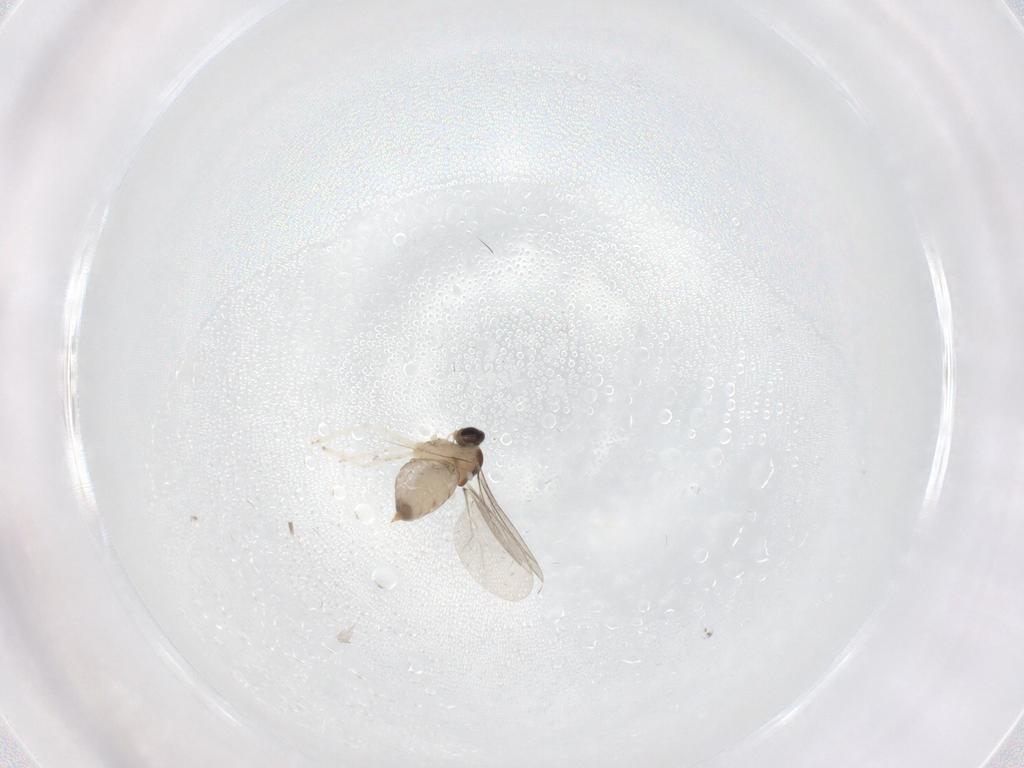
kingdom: Animalia
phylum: Arthropoda
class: Insecta
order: Diptera
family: Cecidomyiidae
